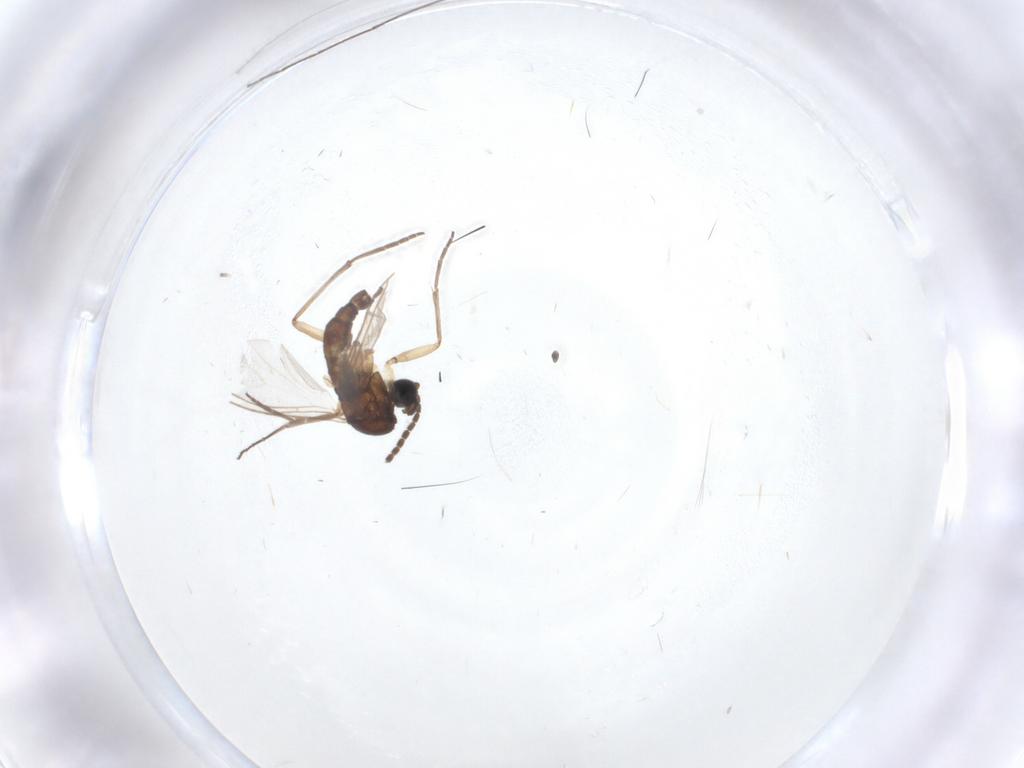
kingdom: Animalia
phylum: Arthropoda
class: Insecta
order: Diptera
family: Sciaridae
